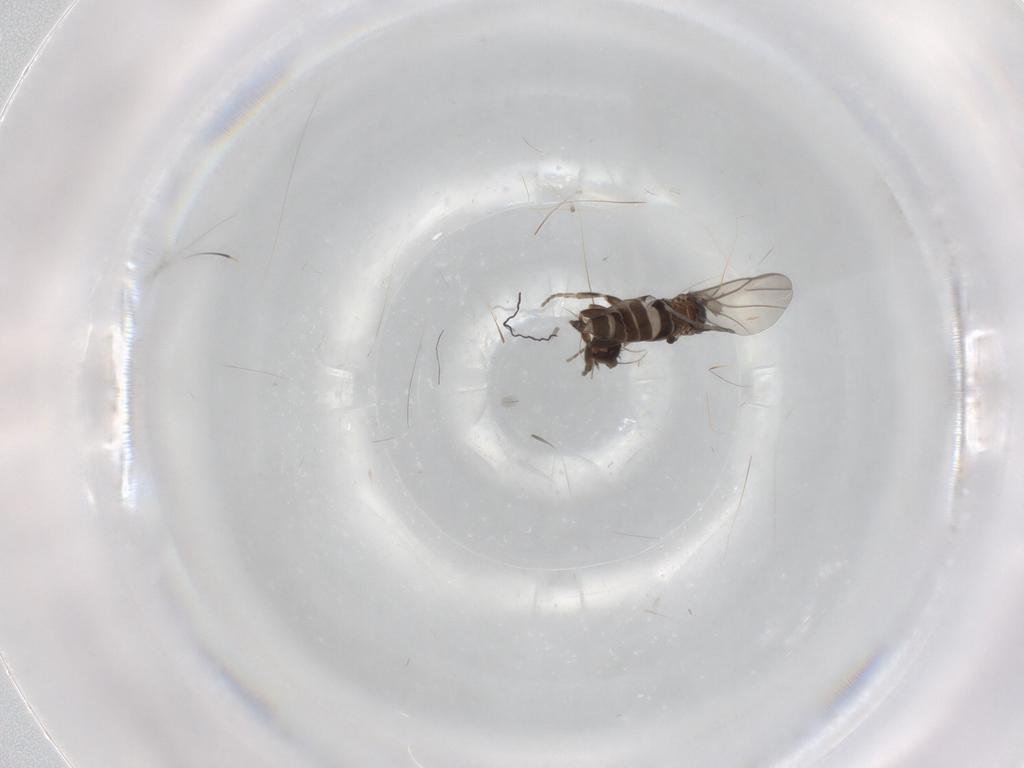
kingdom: Animalia
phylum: Arthropoda
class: Insecta
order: Diptera
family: Phoridae
